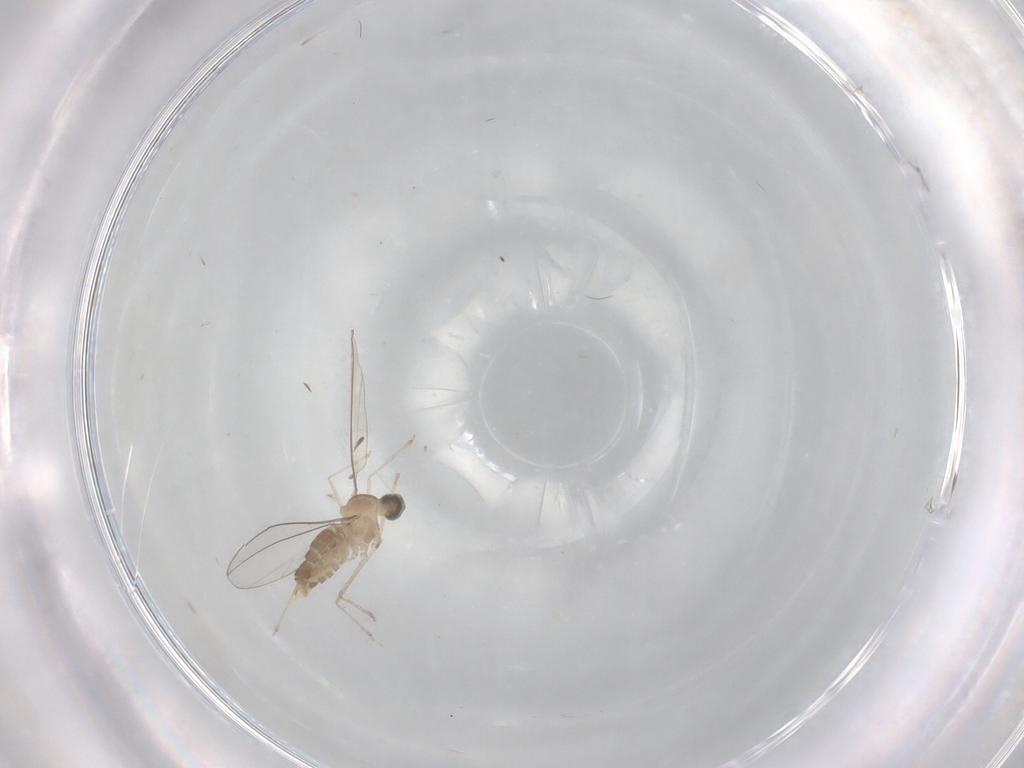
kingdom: Animalia
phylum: Arthropoda
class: Insecta
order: Diptera
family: Phoridae
